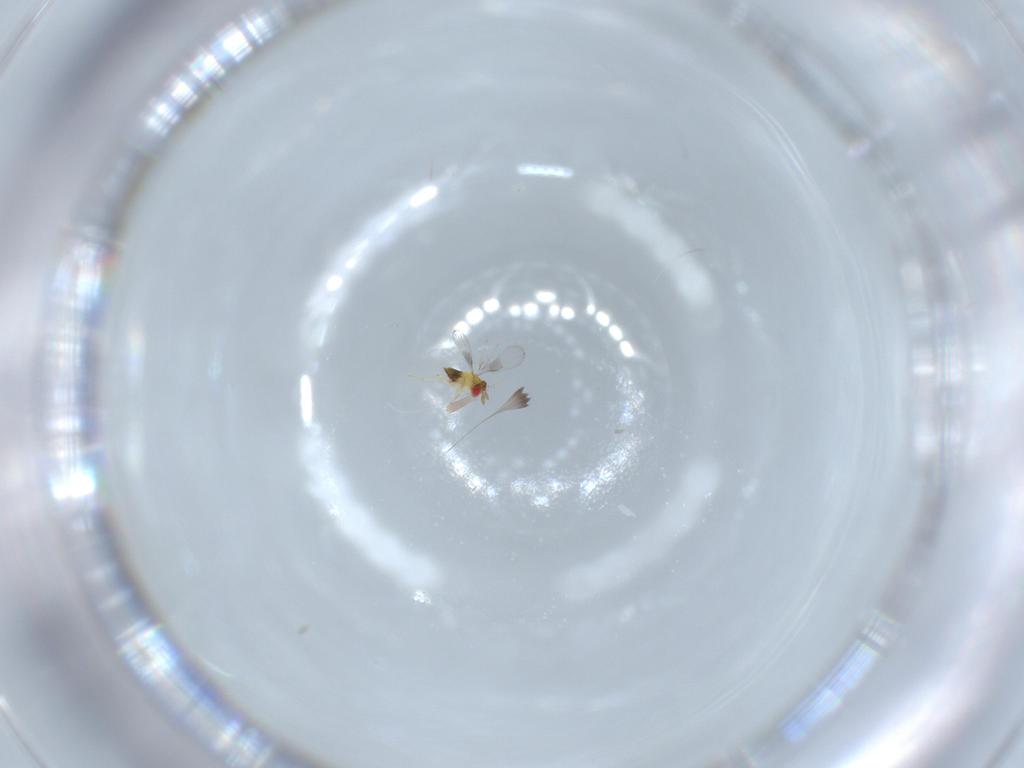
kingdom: Animalia
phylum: Arthropoda
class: Insecta
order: Hymenoptera
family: Trichogrammatidae
